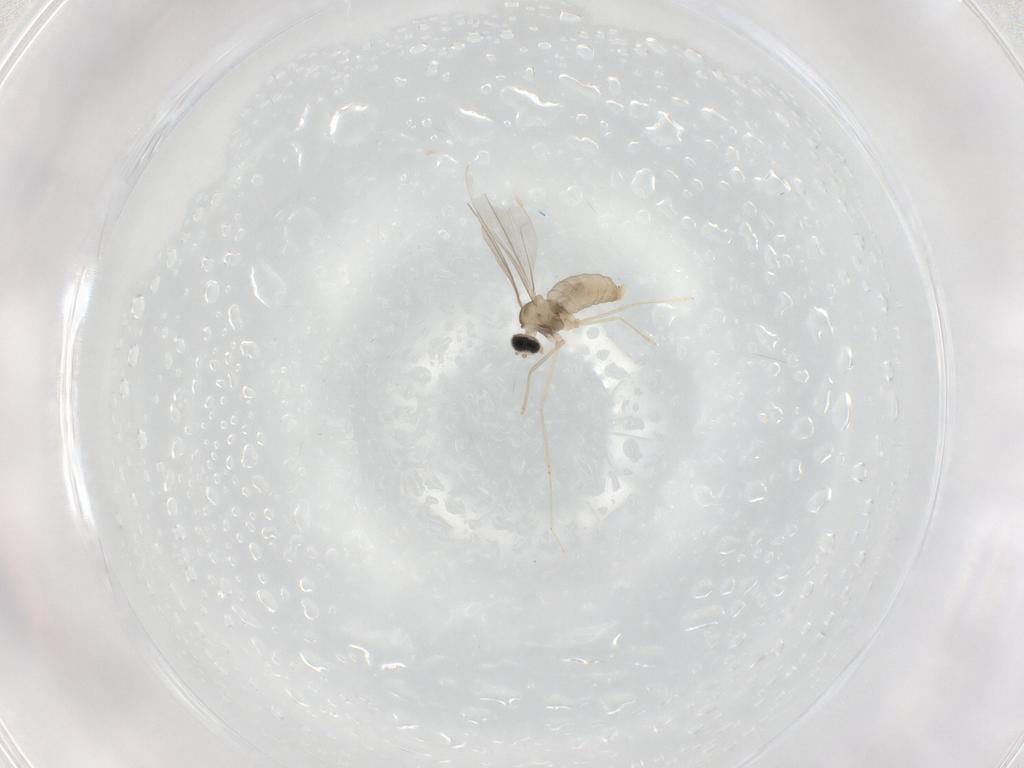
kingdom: Animalia
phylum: Arthropoda
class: Insecta
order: Diptera
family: Cecidomyiidae
